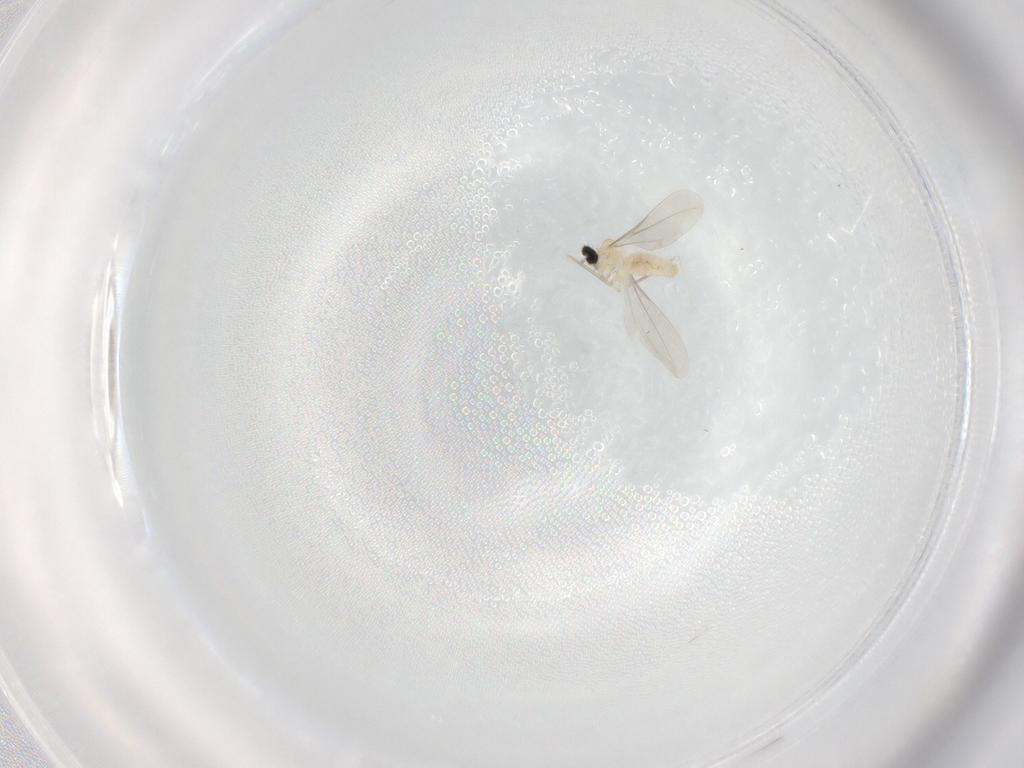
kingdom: Animalia
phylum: Arthropoda
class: Insecta
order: Diptera
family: Cecidomyiidae
